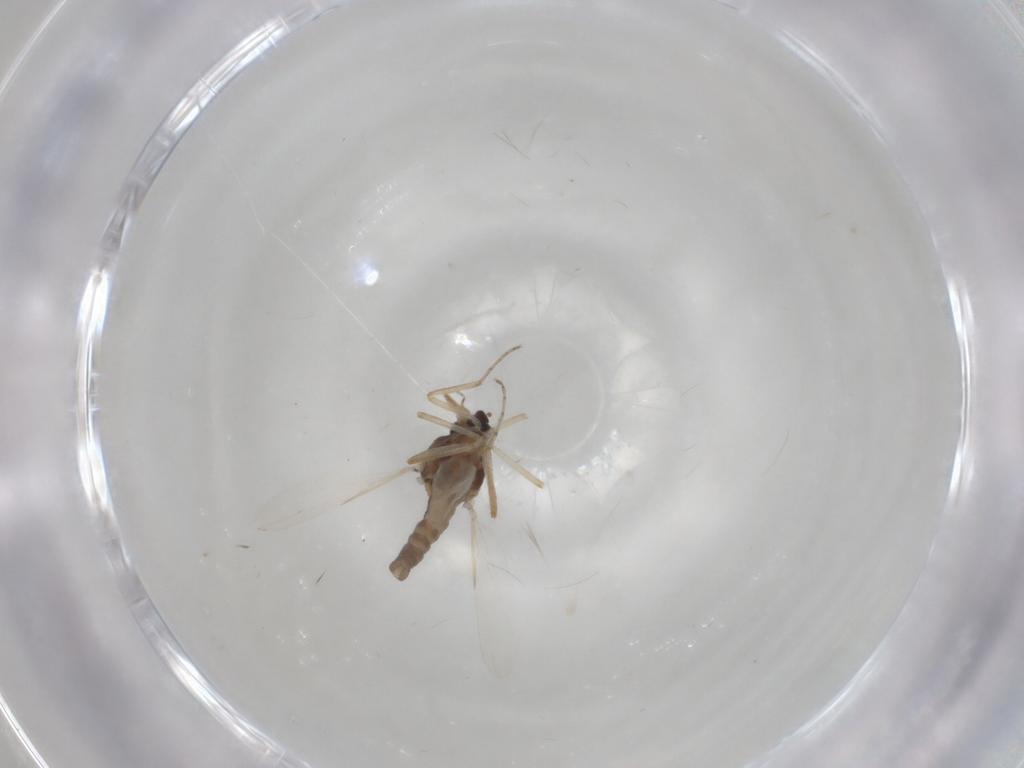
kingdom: Animalia
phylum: Arthropoda
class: Insecta
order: Diptera
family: Ceratopogonidae
